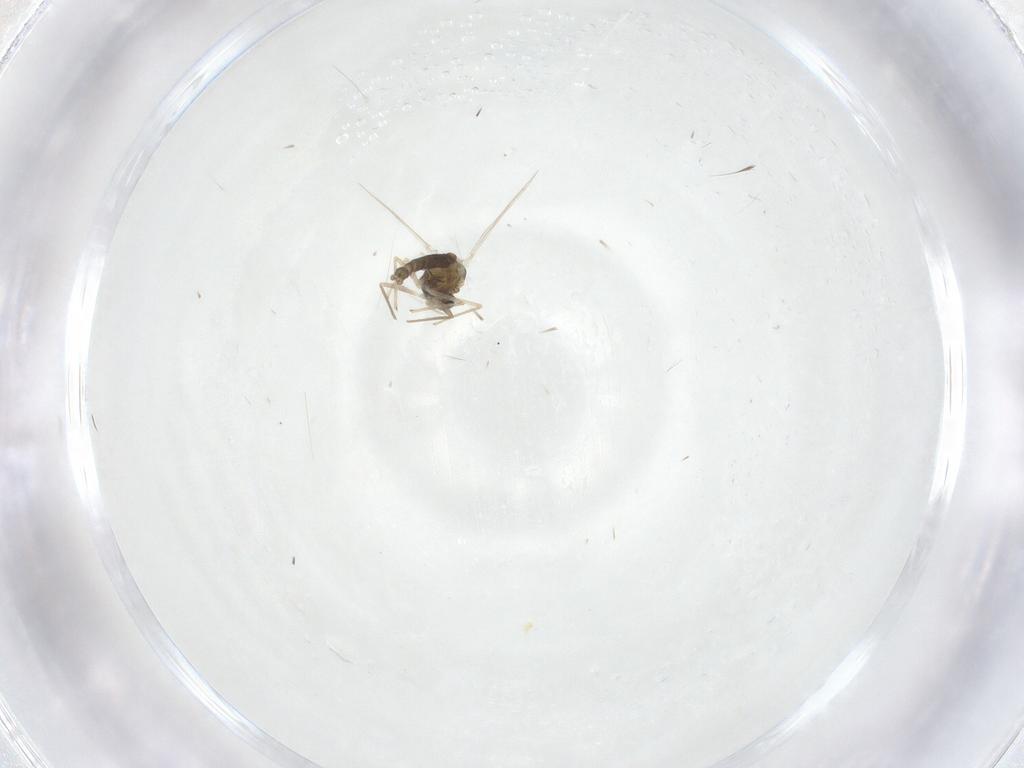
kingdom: Animalia
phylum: Arthropoda
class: Insecta
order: Diptera
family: Chironomidae
